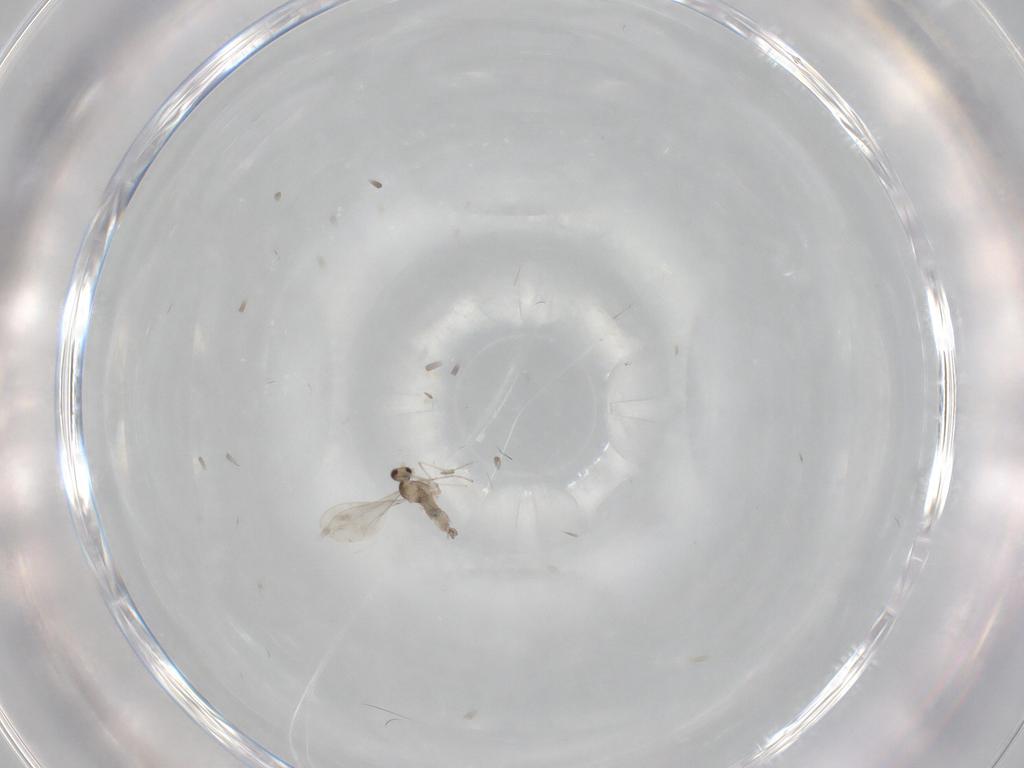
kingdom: Animalia
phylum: Arthropoda
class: Insecta
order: Diptera
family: Cecidomyiidae
